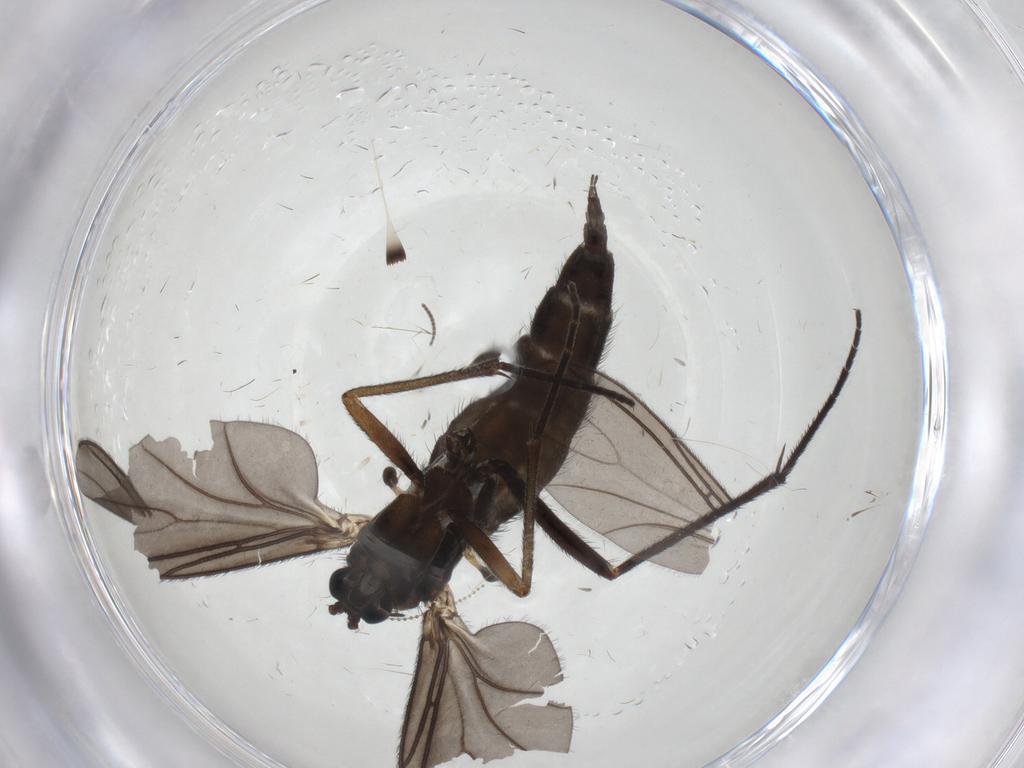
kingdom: Animalia
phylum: Arthropoda
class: Insecta
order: Diptera
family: Sciaridae
